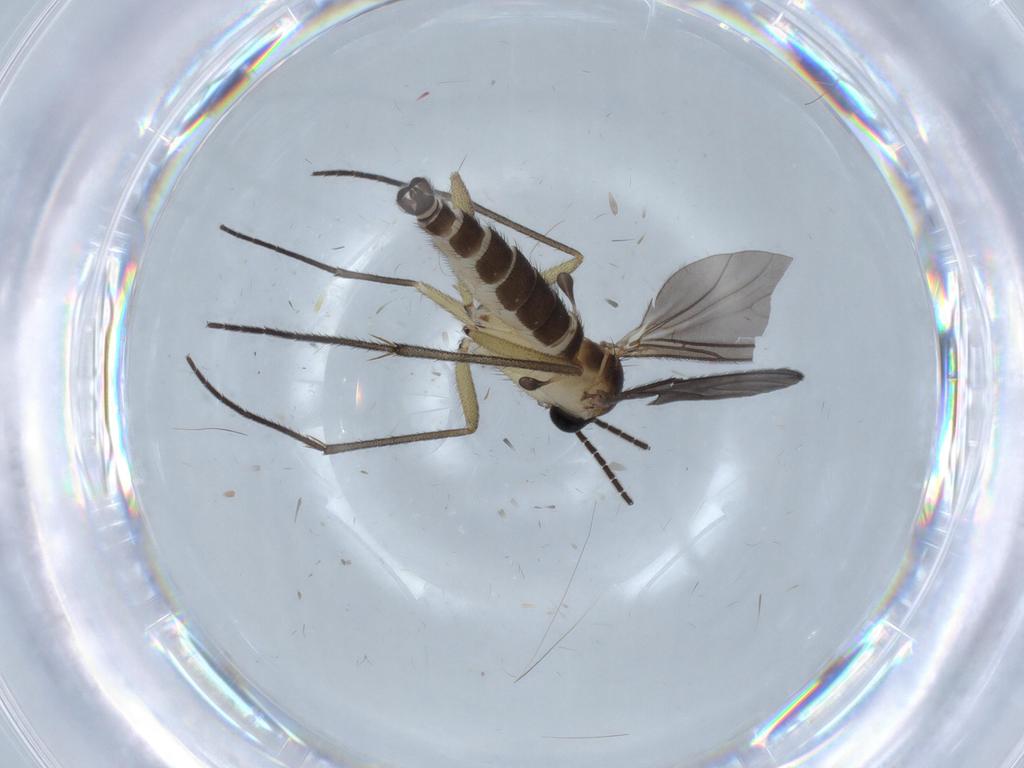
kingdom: Animalia
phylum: Arthropoda
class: Insecta
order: Diptera
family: Sciaridae
